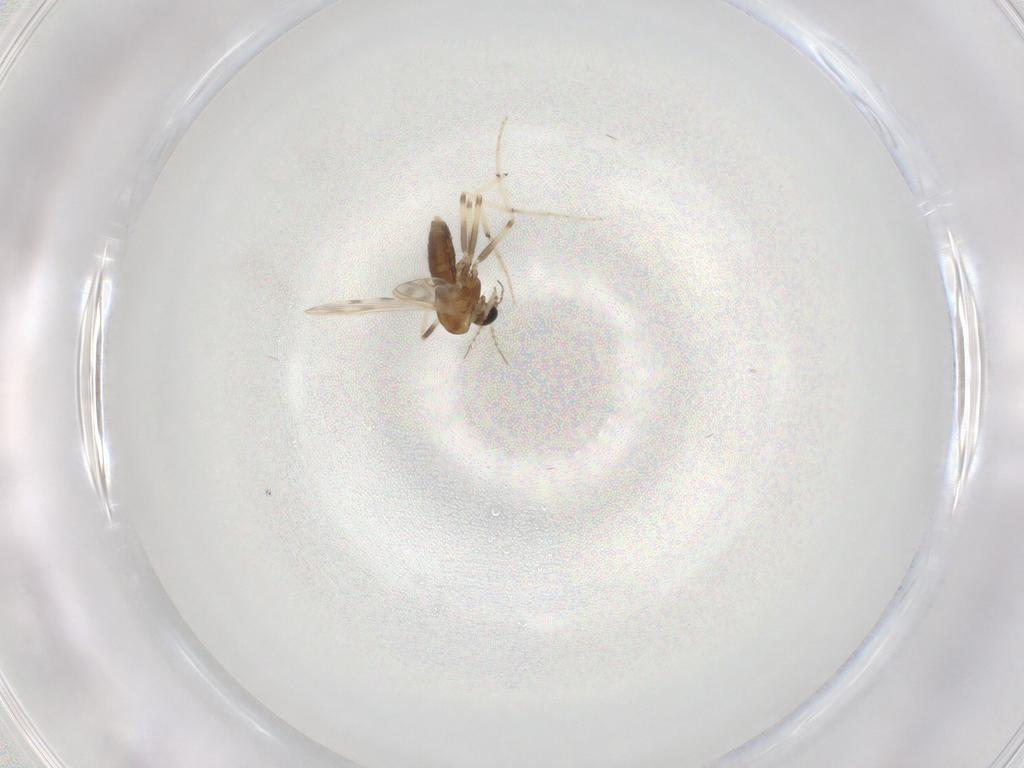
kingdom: Animalia
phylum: Arthropoda
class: Insecta
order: Diptera
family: Chironomidae
